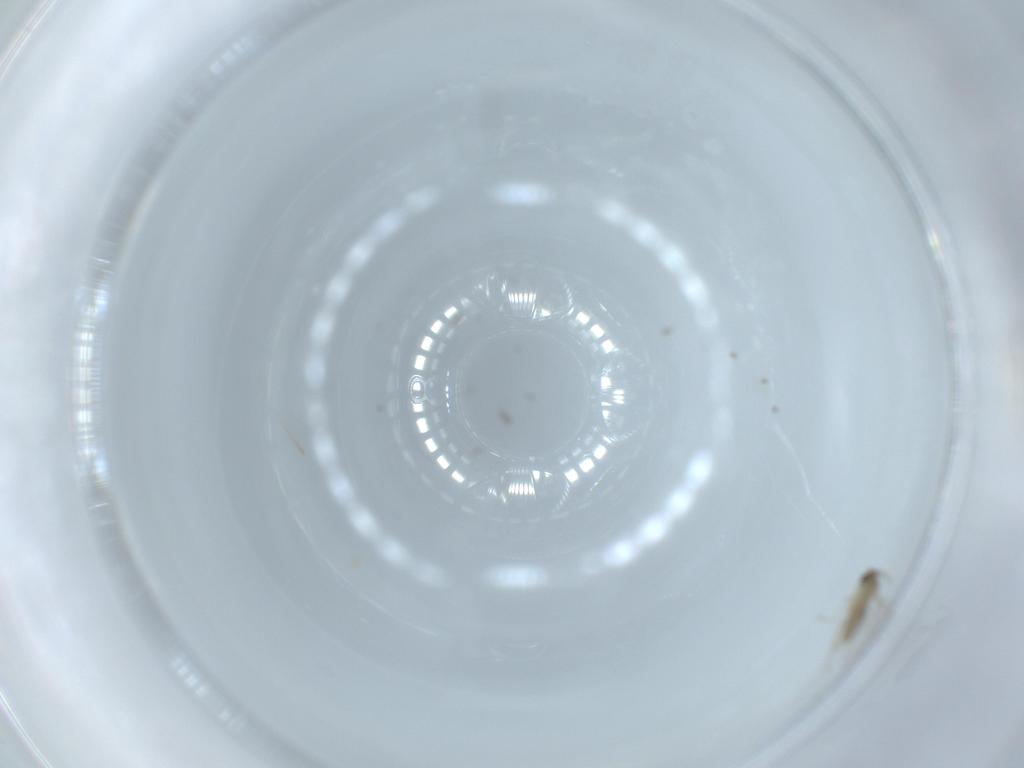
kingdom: Animalia
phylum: Arthropoda
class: Insecta
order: Diptera
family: Cecidomyiidae
